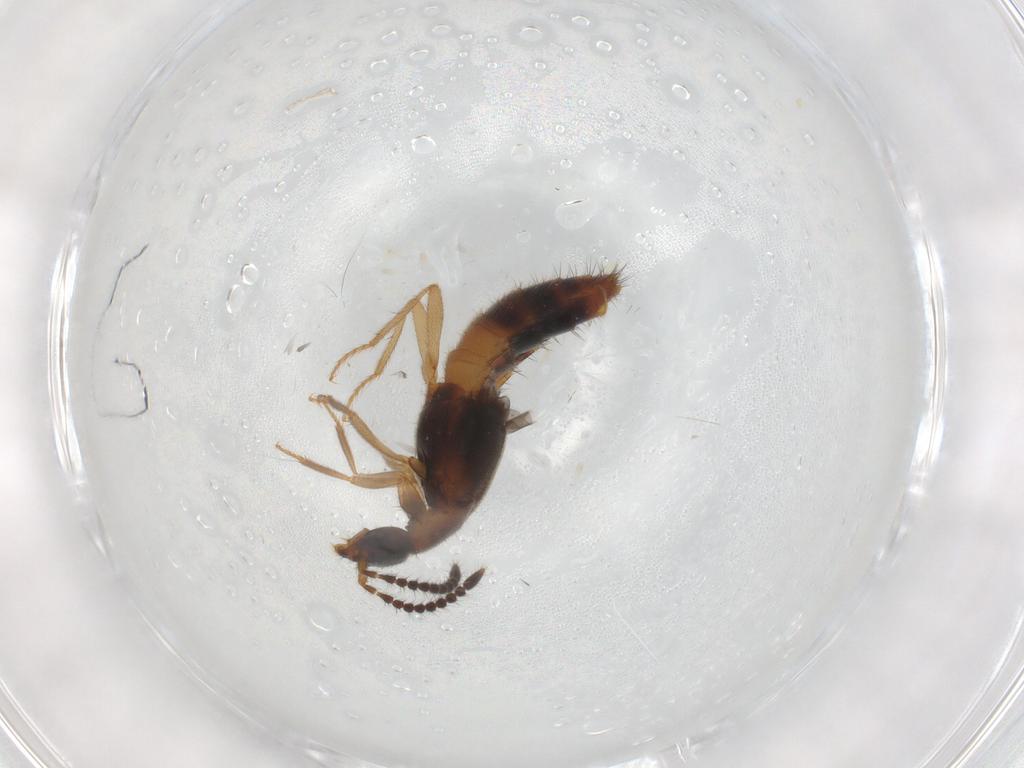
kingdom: Animalia
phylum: Arthropoda
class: Insecta
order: Coleoptera
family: Staphylinidae
